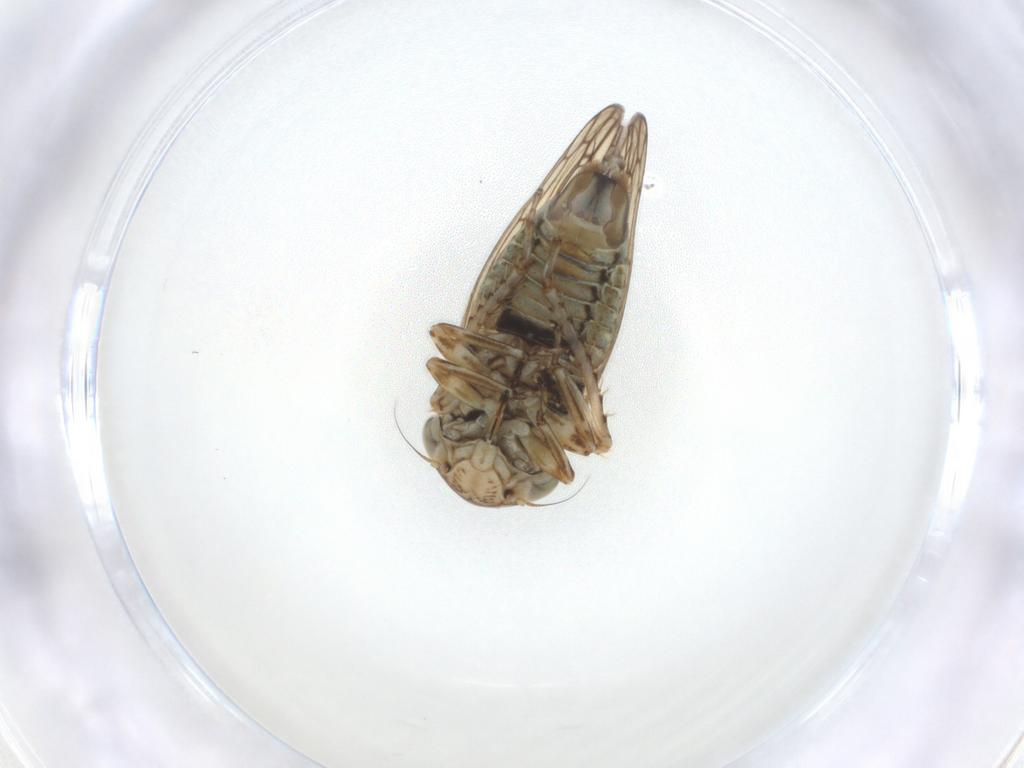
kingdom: Animalia
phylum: Arthropoda
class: Insecta
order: Hemiptera
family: Cicadellidae
